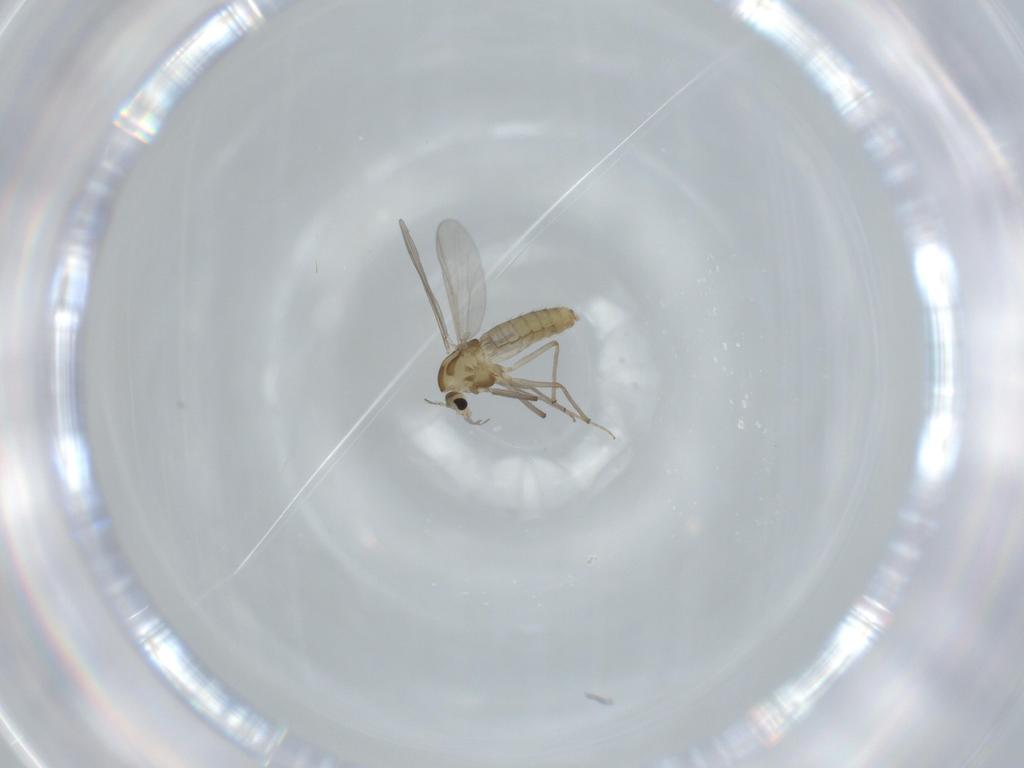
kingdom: Animalia
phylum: Arthropoda
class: Insecta
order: Diptera
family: Chironomidae
